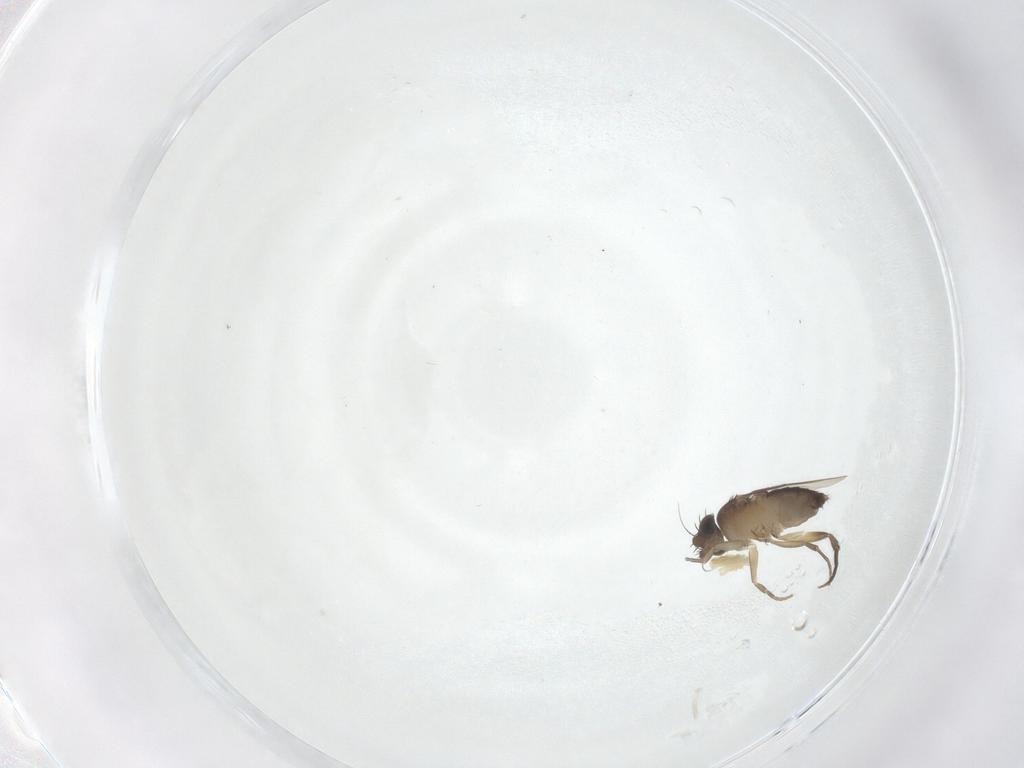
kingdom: Animalia
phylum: Arthropoda
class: Insecta
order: Diptera
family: Phoridae
